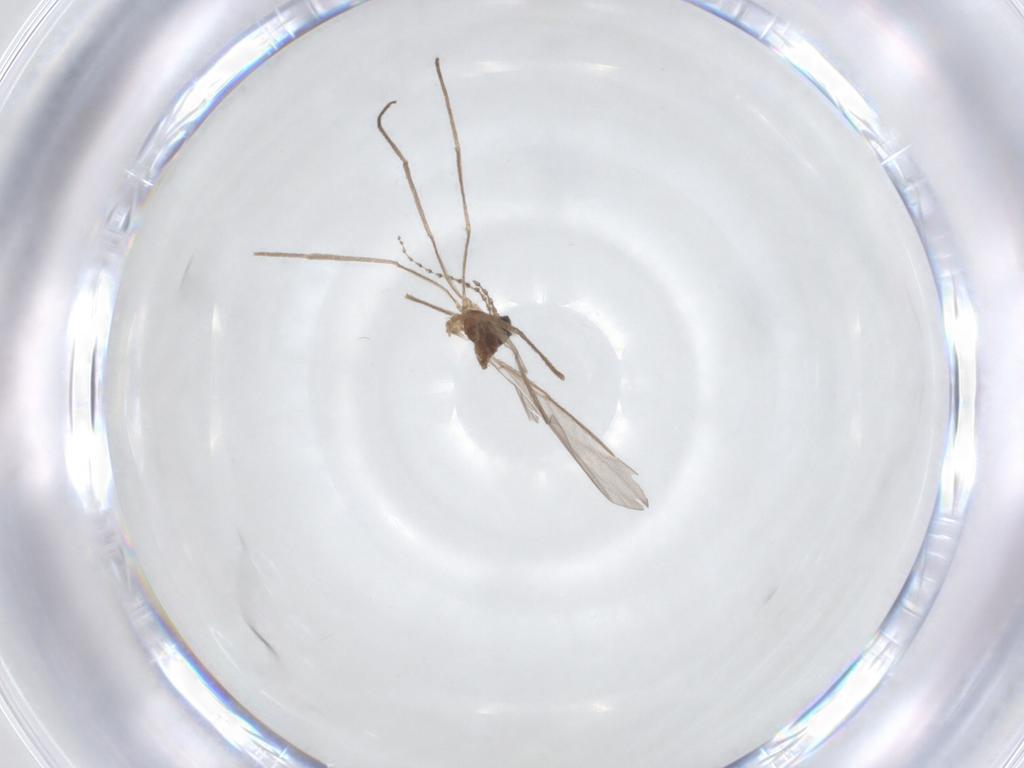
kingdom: Animalia
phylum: Arthropoda
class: Insecta
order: Diptera
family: Cecidomyiidae
